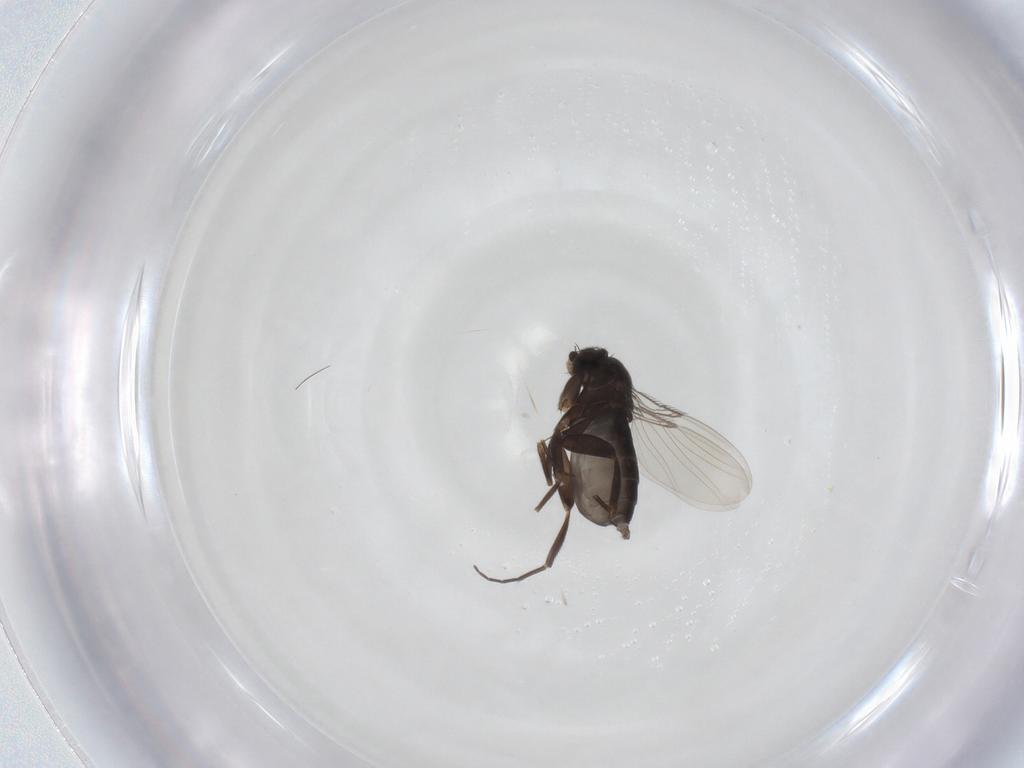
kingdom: Animalia
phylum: Arthropoda
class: Insecta
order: Diptera
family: Phoridae
